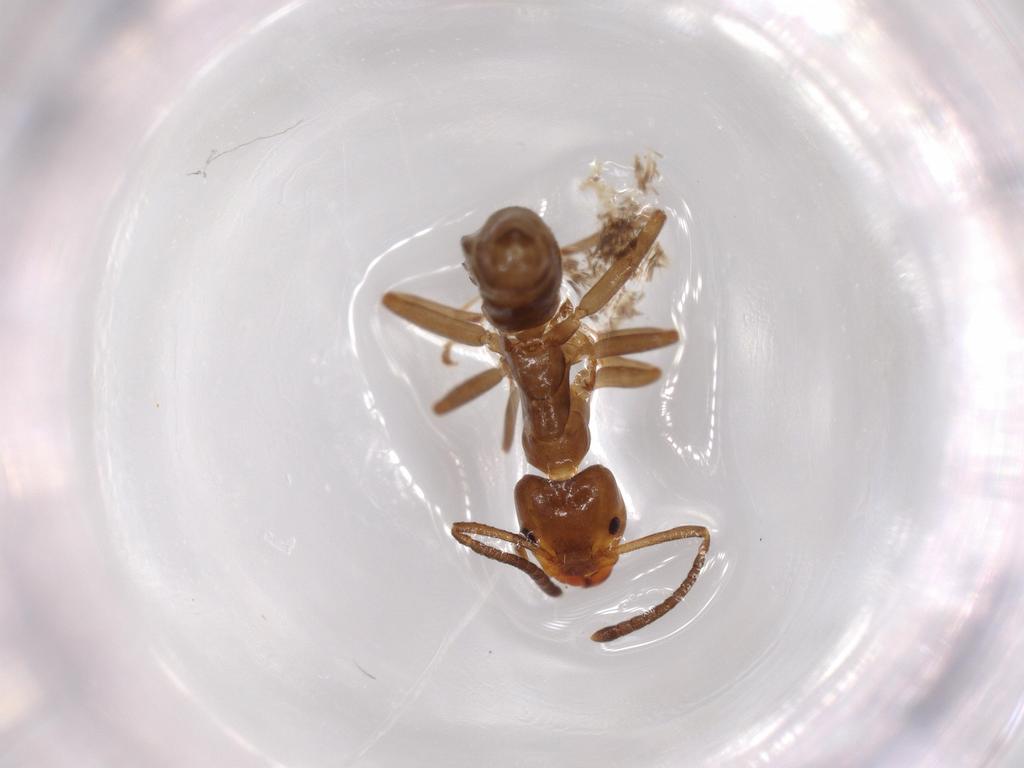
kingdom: Animalia
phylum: Arthropoda
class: Insecta
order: Hymenoptera
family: Formicidae
